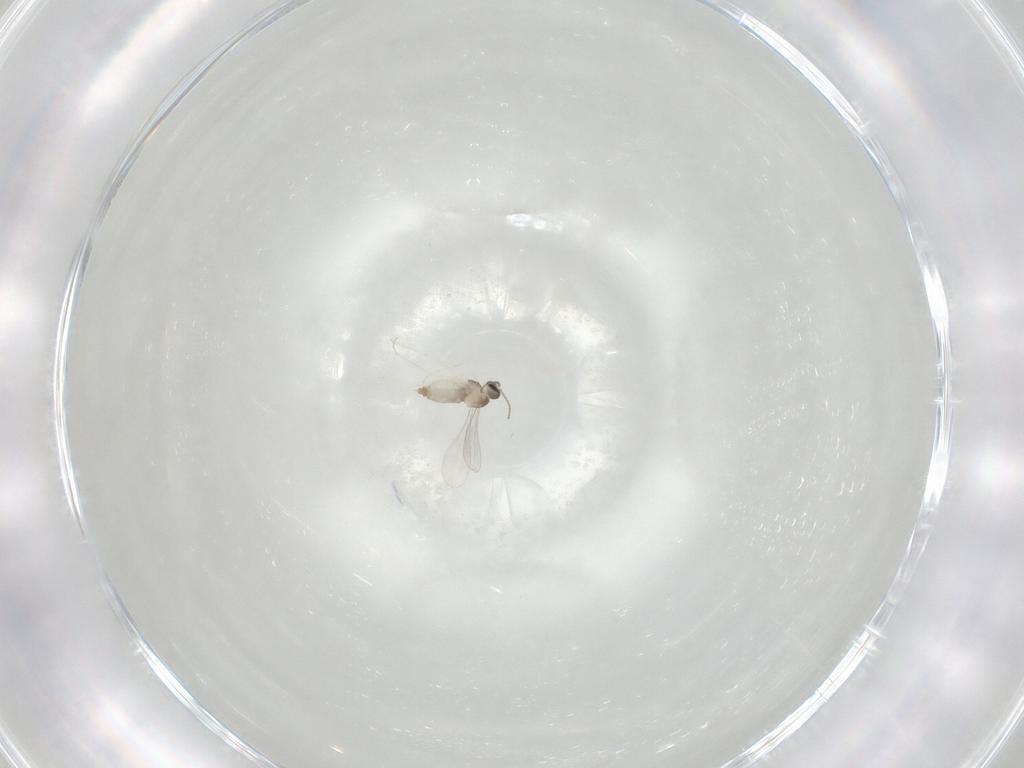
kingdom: Animalia
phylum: Arthropoda
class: Insecta
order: Diptera
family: Cecidomyiidae
